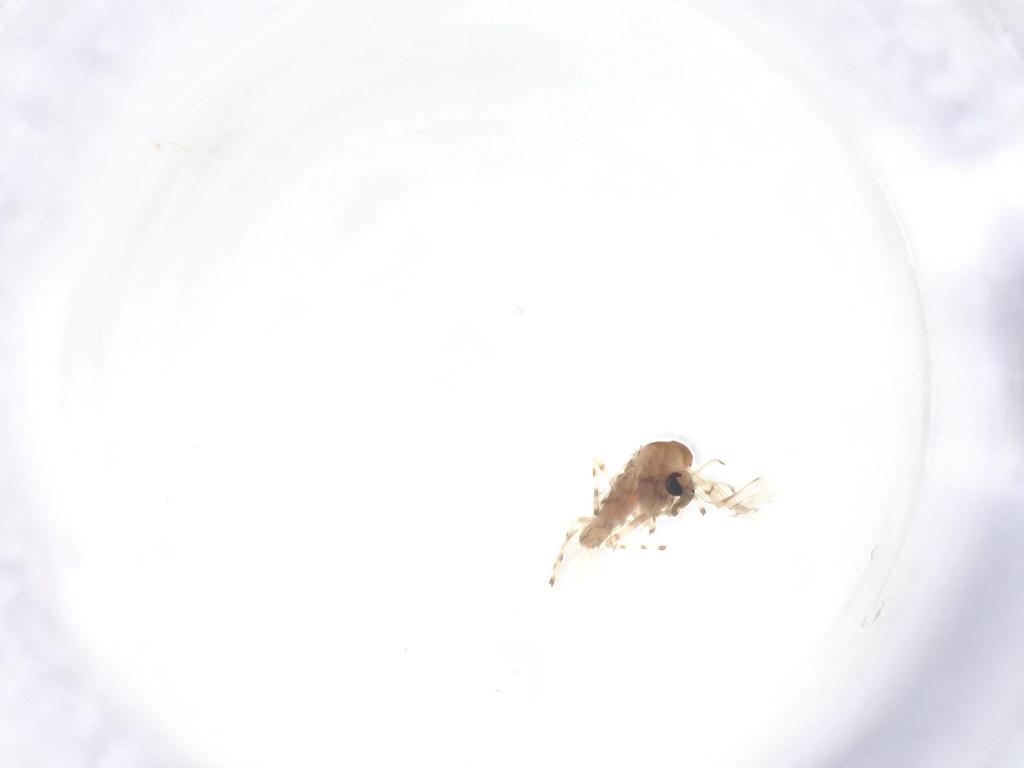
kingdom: Animalia
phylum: Arthropoda
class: Insecta
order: Diptera
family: Chironomidae
